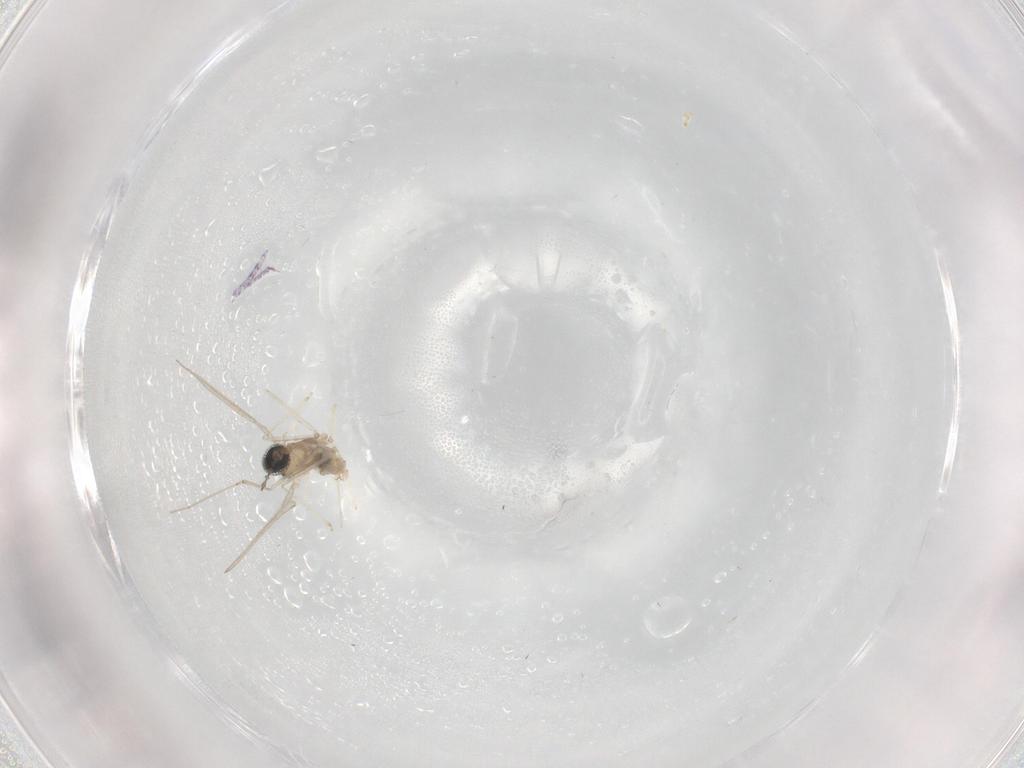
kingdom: Animalia
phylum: Arthropoda
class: Insecta
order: Diptera
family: Cecidomyiidae
